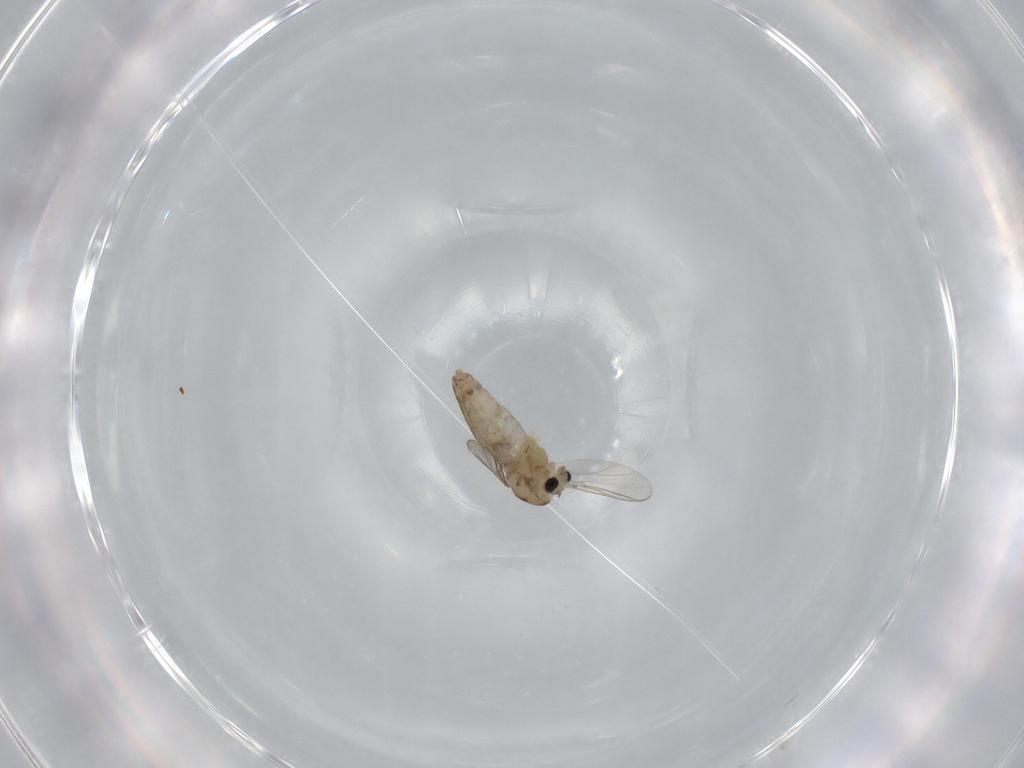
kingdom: Animalia
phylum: Arthropoda
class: Insecta
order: Diptera
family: Chironomidae
